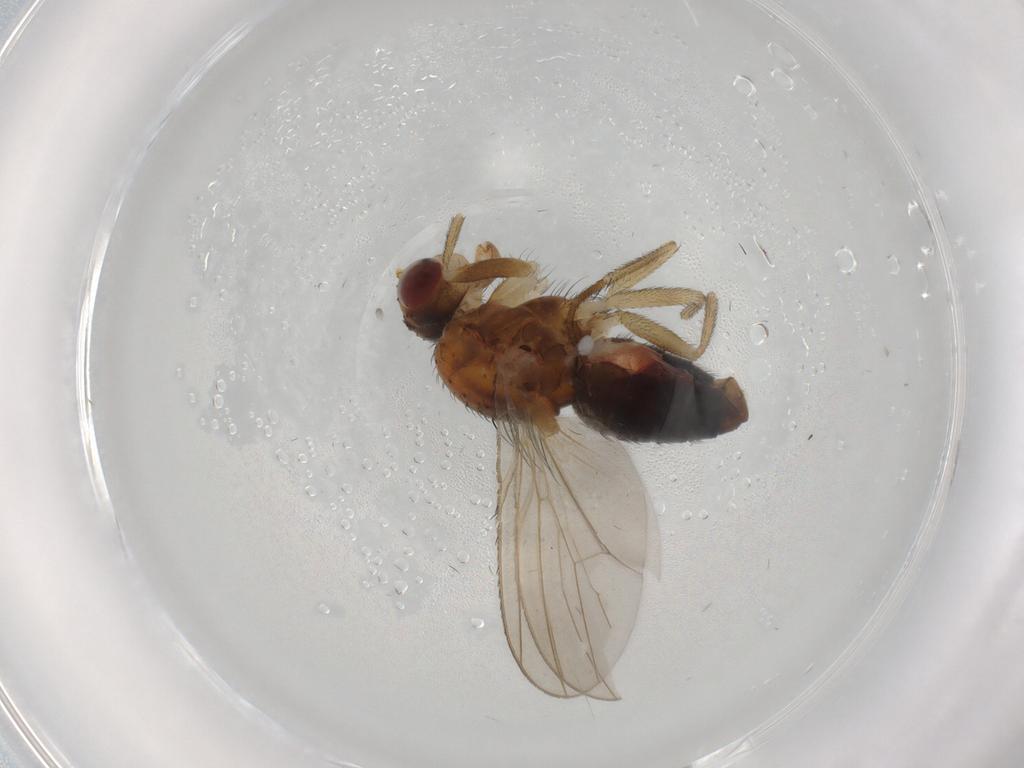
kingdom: Animalia
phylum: Arthropoda
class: Insecta
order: Diptera
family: Heleomyzidae
